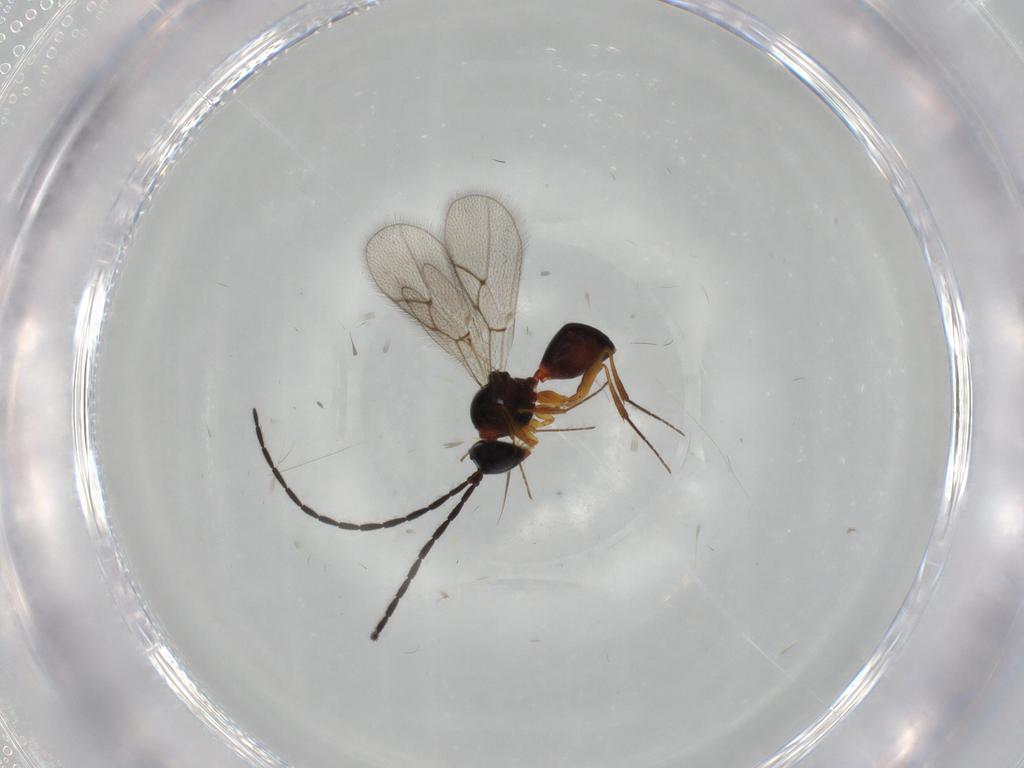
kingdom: Animalia
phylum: Arthropoda
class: Insecta
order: Hymenoptera
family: Figitidae
